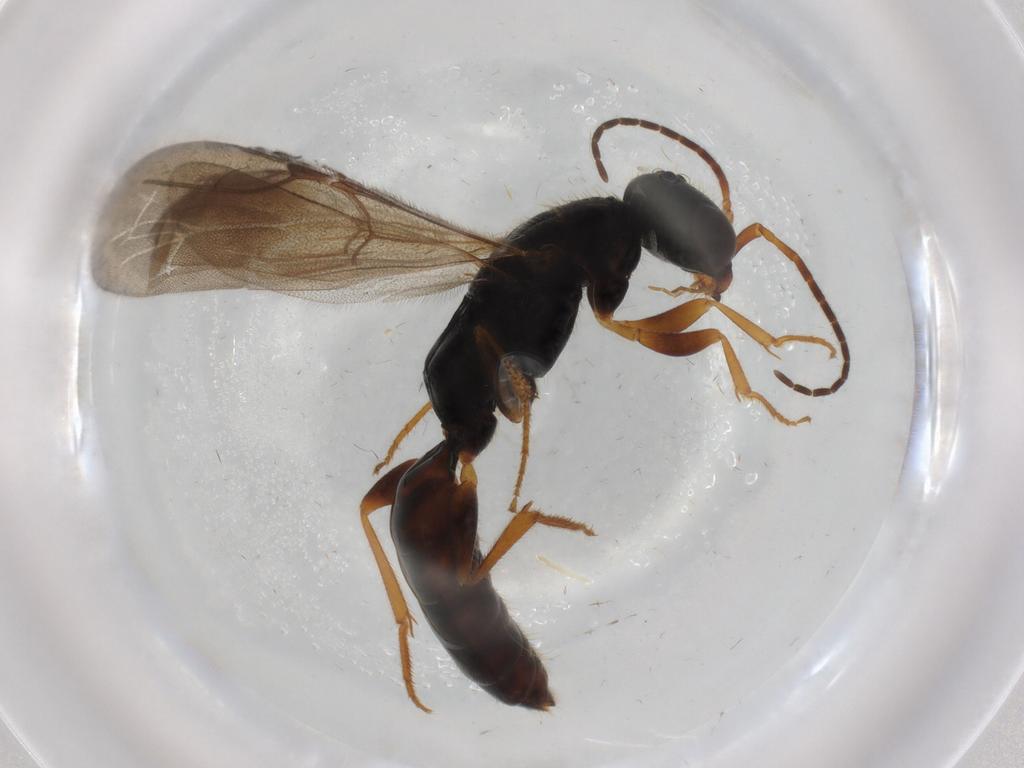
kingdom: Animalia
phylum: Arthropoda
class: Insecta
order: Hymenoptera
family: Bethylidae
